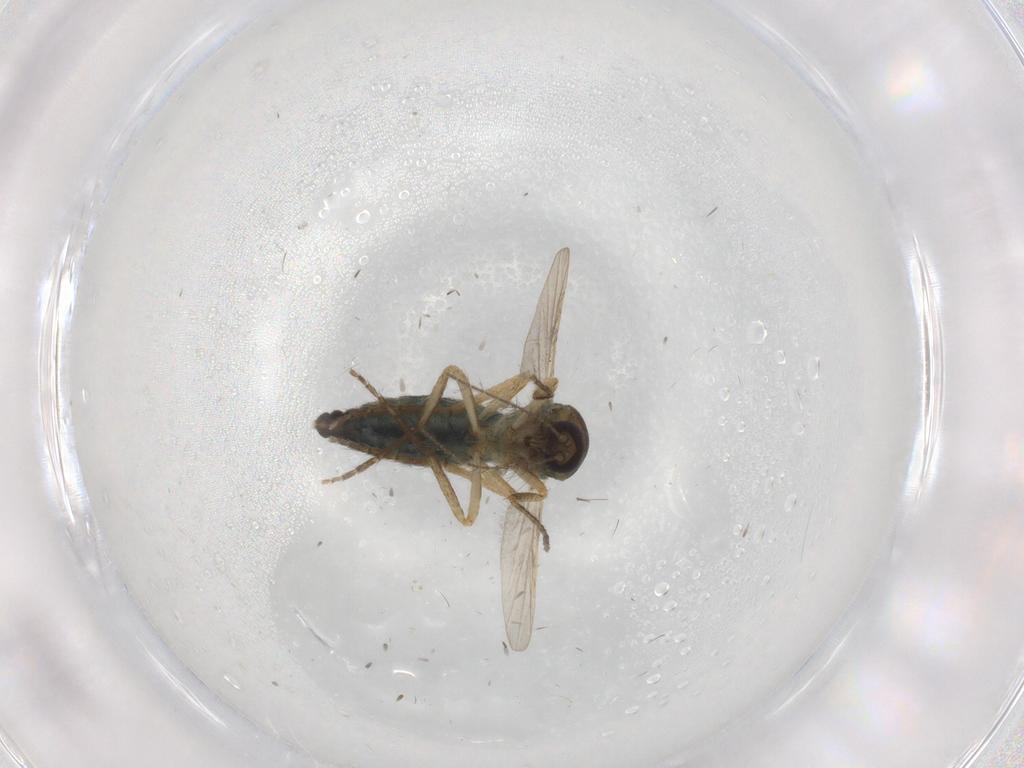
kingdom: Animalia
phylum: Arthropoda
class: Insecta
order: Diptera
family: Ceratopogonidae
